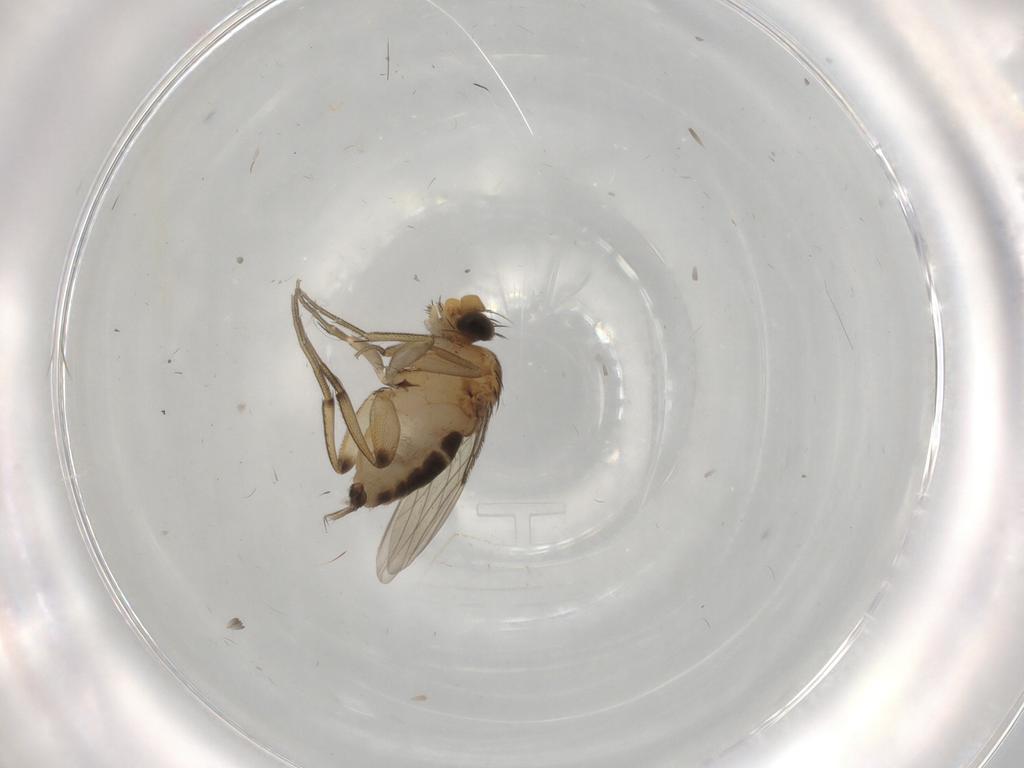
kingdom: Animalia
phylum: Arthropoda
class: Insecta
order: Diptera
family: Phoridae
